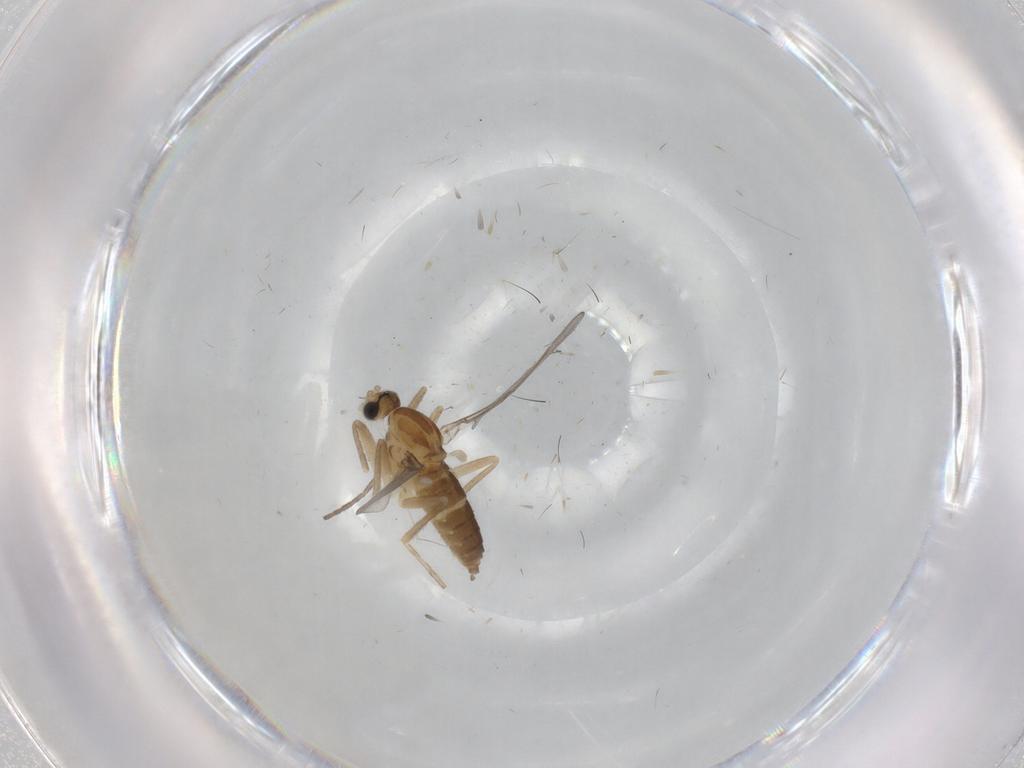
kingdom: Animalia
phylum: Arthropoda
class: Insecta
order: Diptera
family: Cecidomyiidae
